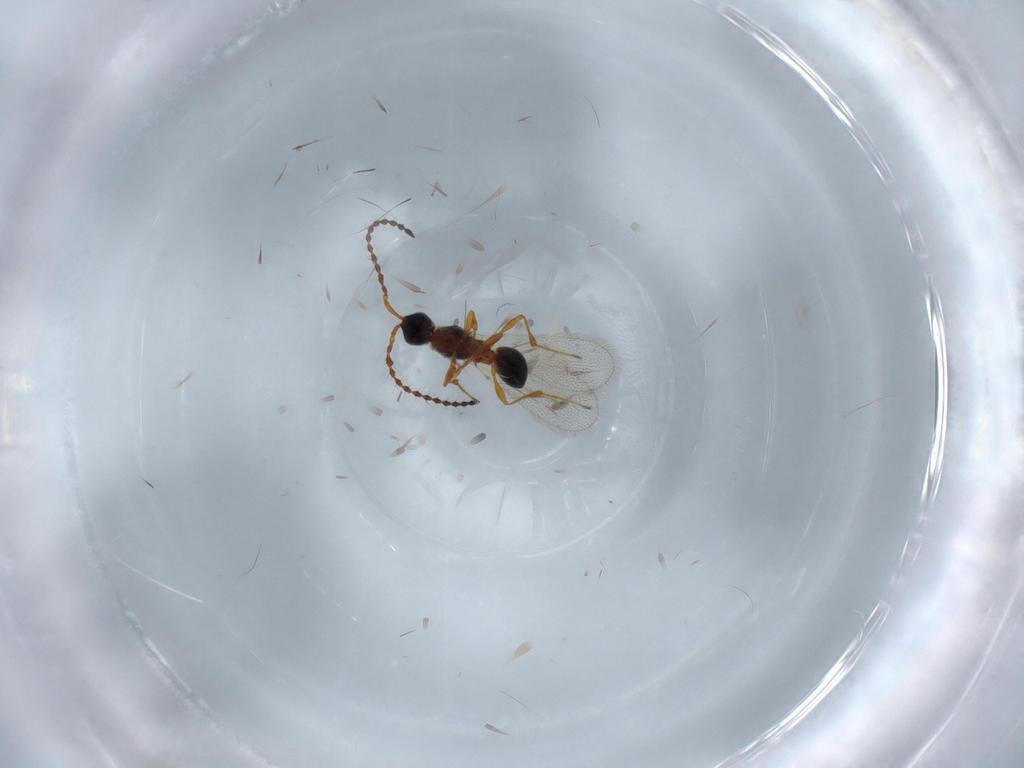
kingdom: Animalia
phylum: Arthropoda
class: Insecta
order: Hymenoptera
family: Diapriidae
